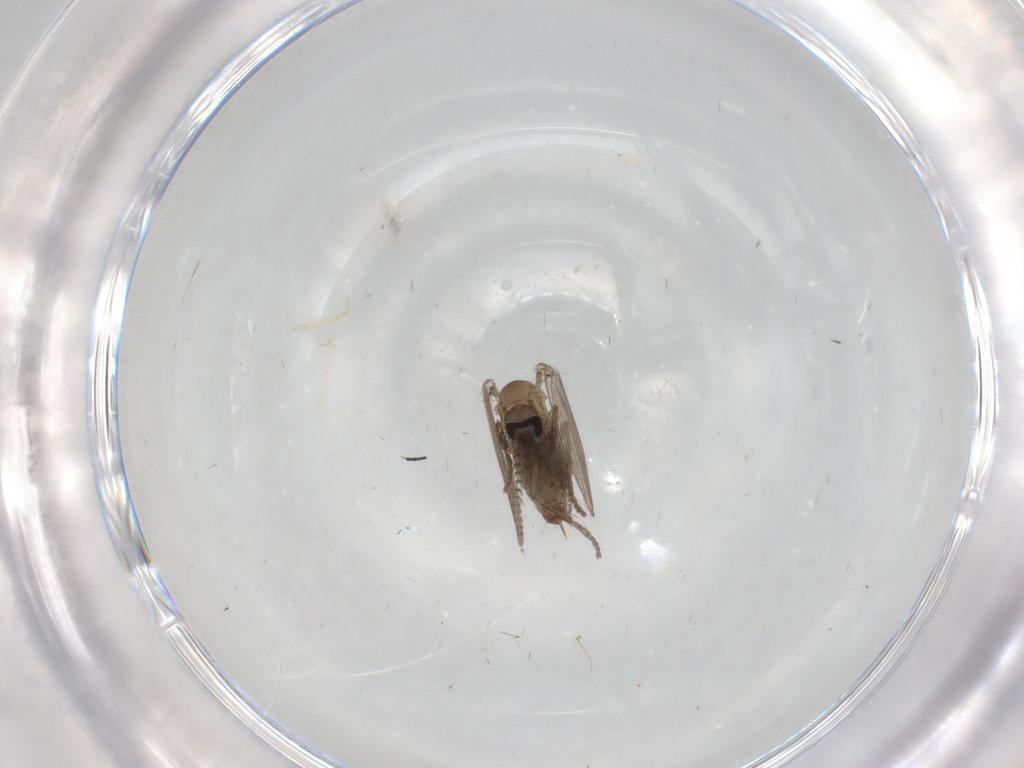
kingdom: Animalia
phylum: Arthropoda
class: Insecta
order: Diptera
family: Psychodidae
